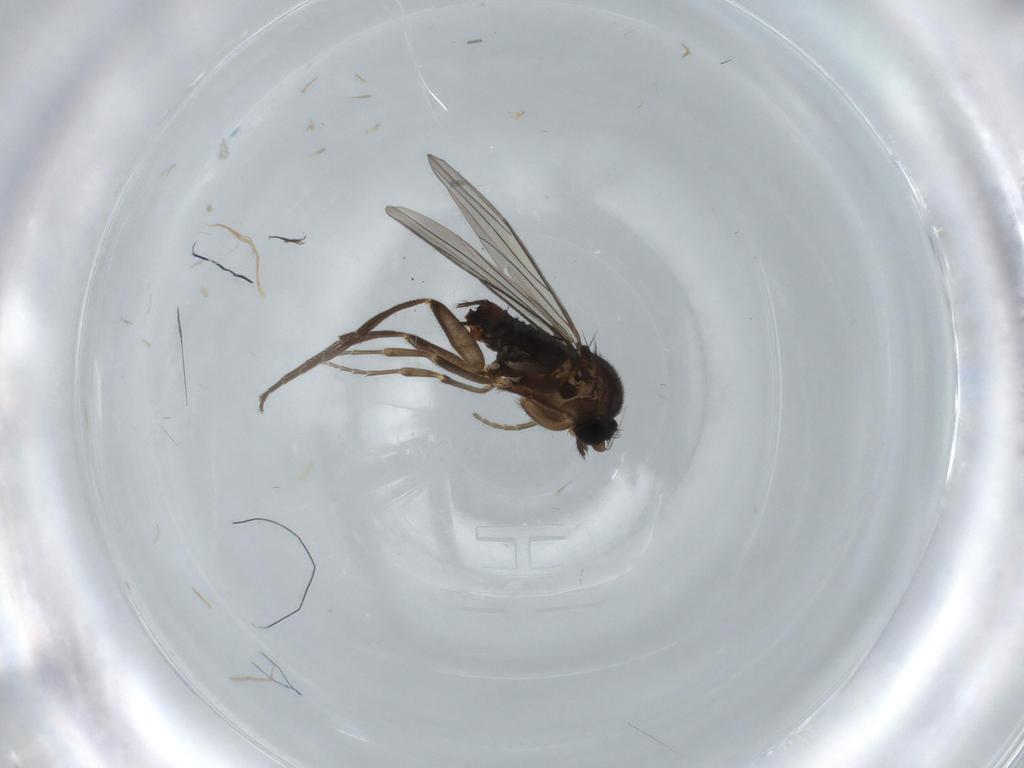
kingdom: Animalia
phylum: Arthropoda
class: Insecta
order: Diptera
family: Syrphidae
